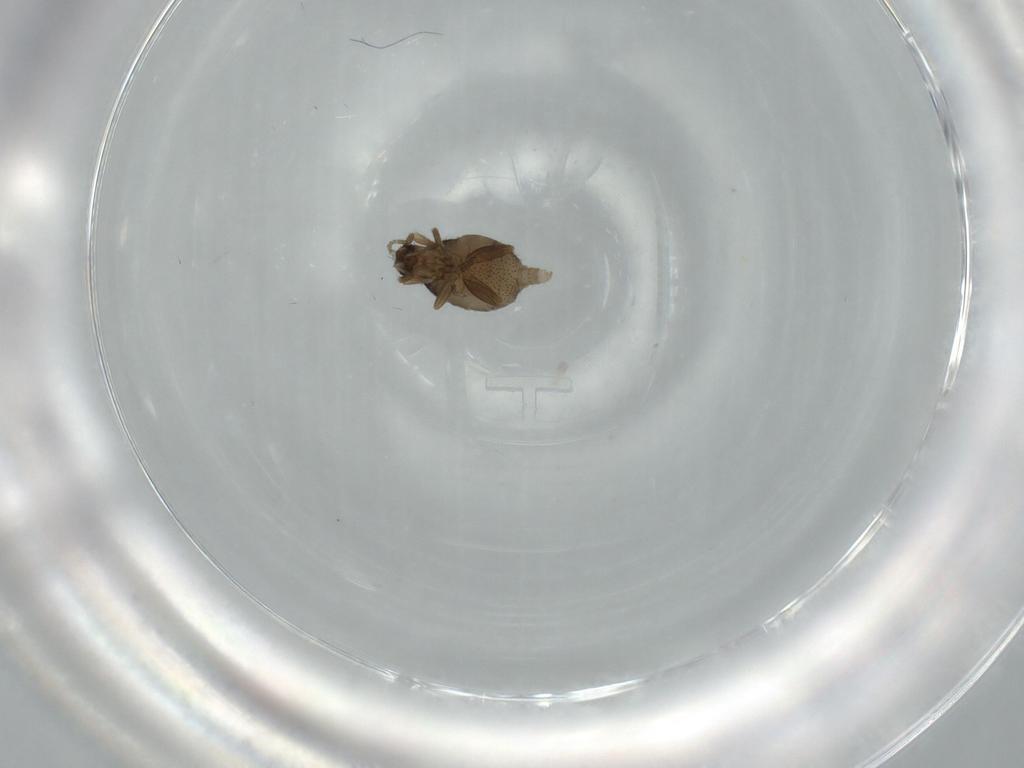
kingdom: Animalia
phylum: Arthropoda
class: Insecta
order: Diptera
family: Phoridae
